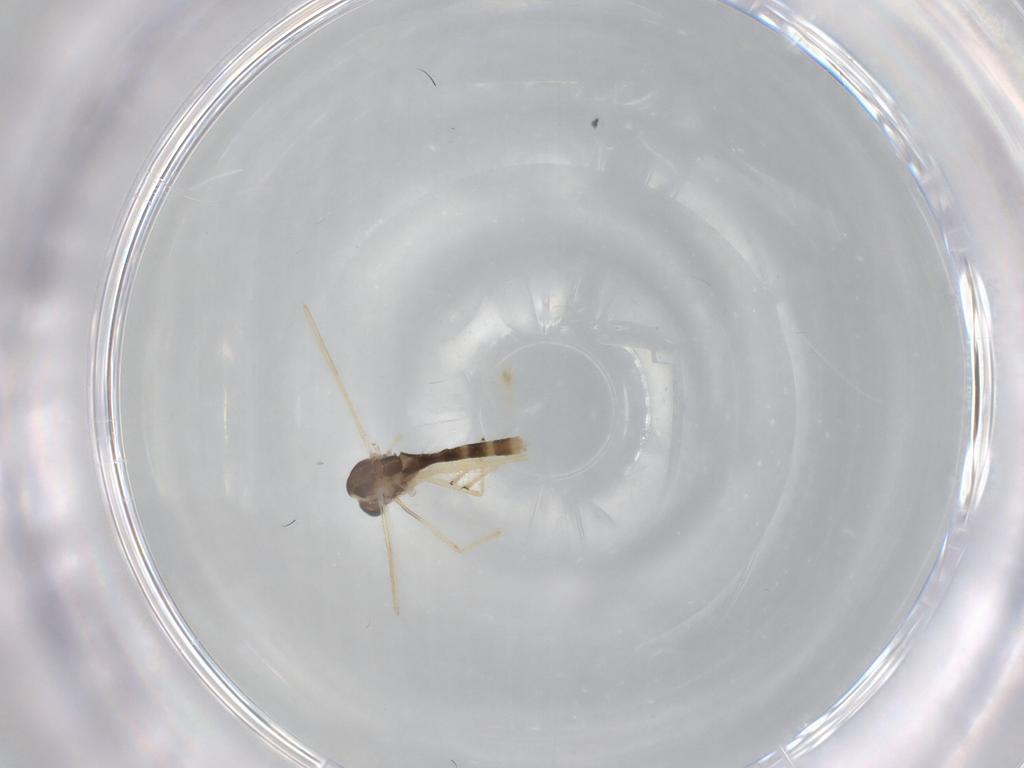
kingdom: Animalia
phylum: Arthropoda
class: Insecta
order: Diptera
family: Chironomidae
